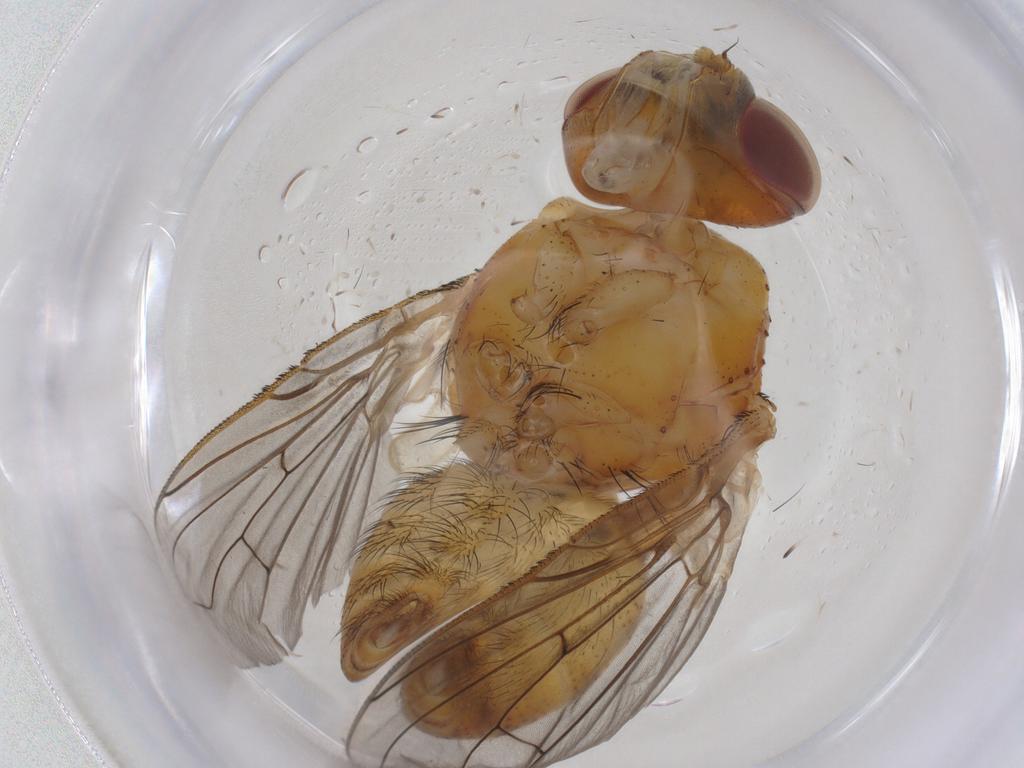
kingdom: Animalia
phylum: Arthropoda
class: Insecta
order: Diptera
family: Tachinidae
